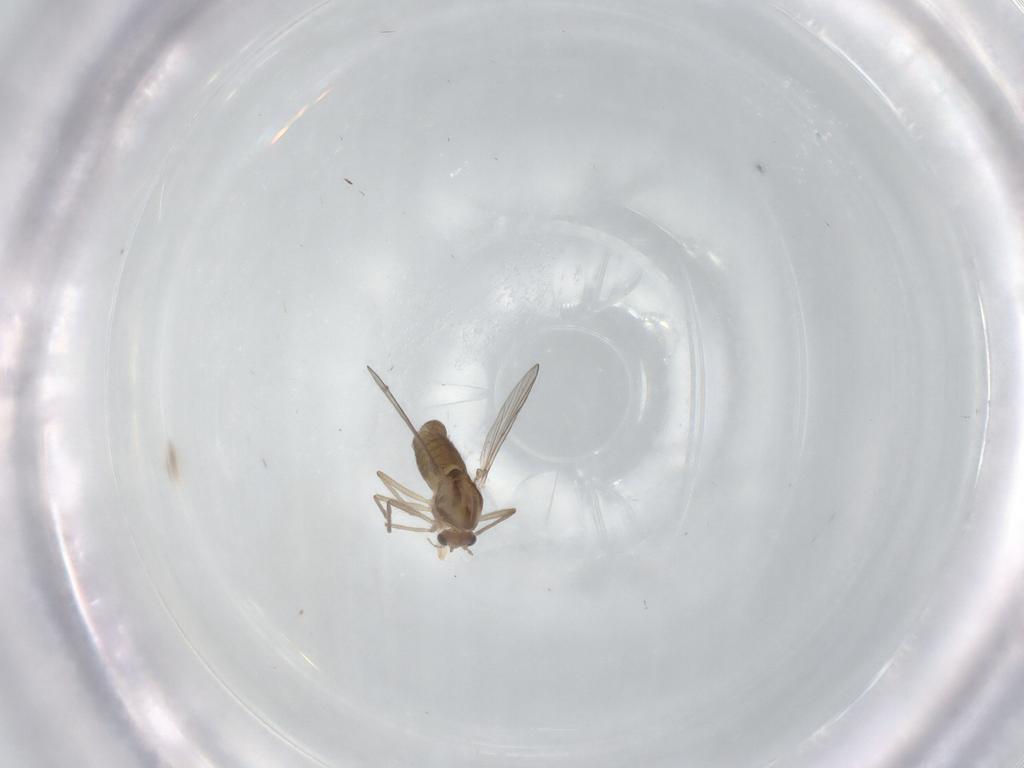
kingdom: Animalia
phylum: Arthropoda
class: Insecta
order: Diptera
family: Chironomidae
